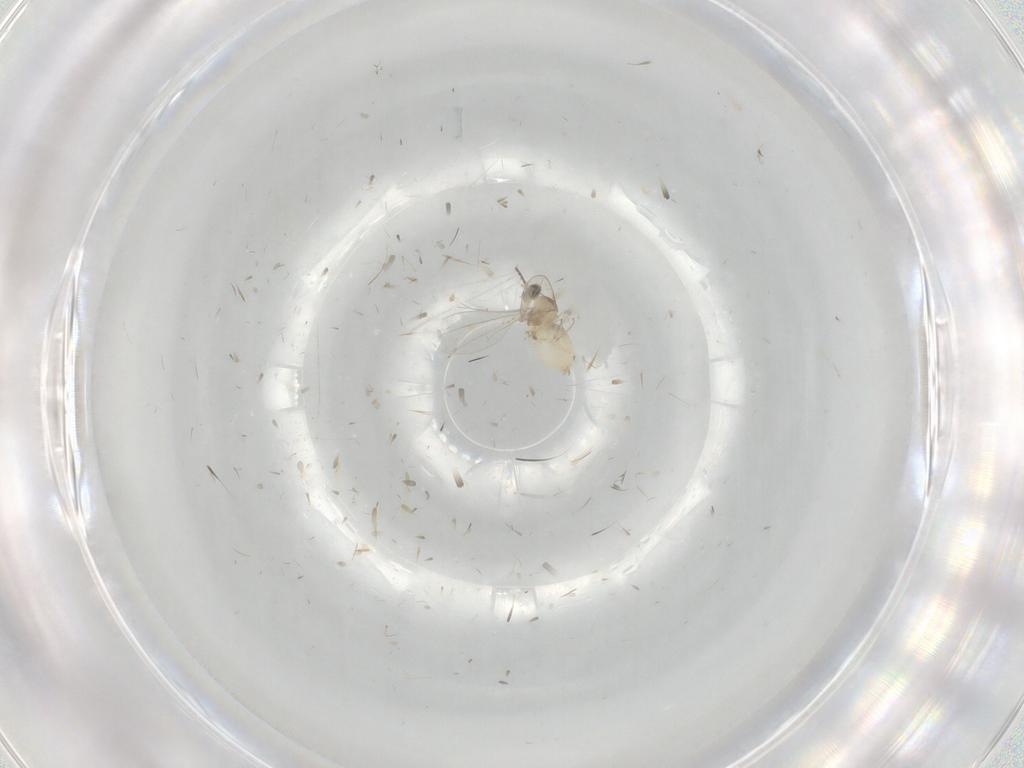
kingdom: Animalia
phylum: Arthropoda
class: Insecta
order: Diptera
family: Cecidomyiidae
